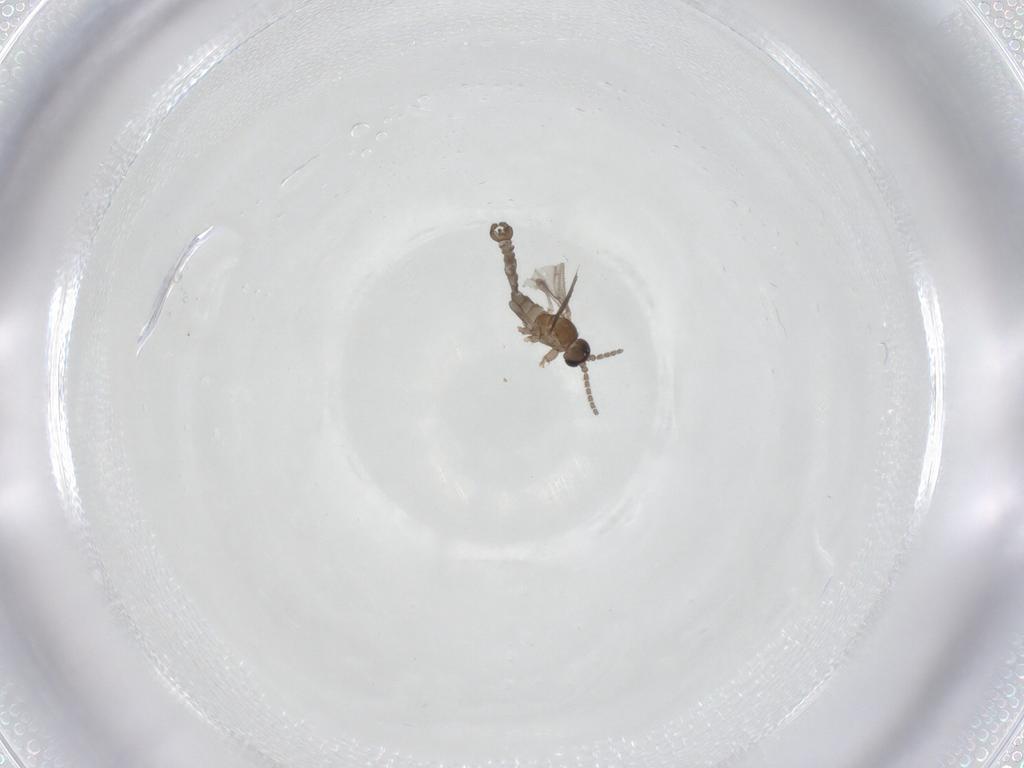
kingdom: Animalia
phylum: Arthropoda
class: Insecta
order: Diptera
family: Sciaridae
